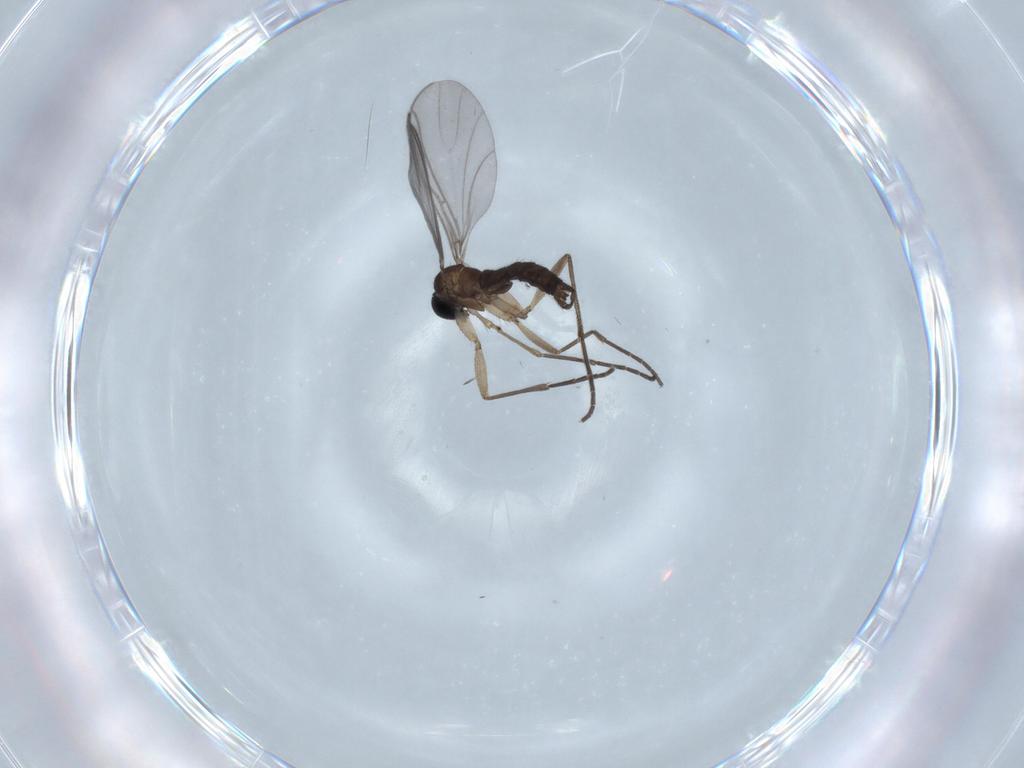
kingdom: Animalia
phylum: Arthropoda
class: Insecta
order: Diptera
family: Sciaridae
